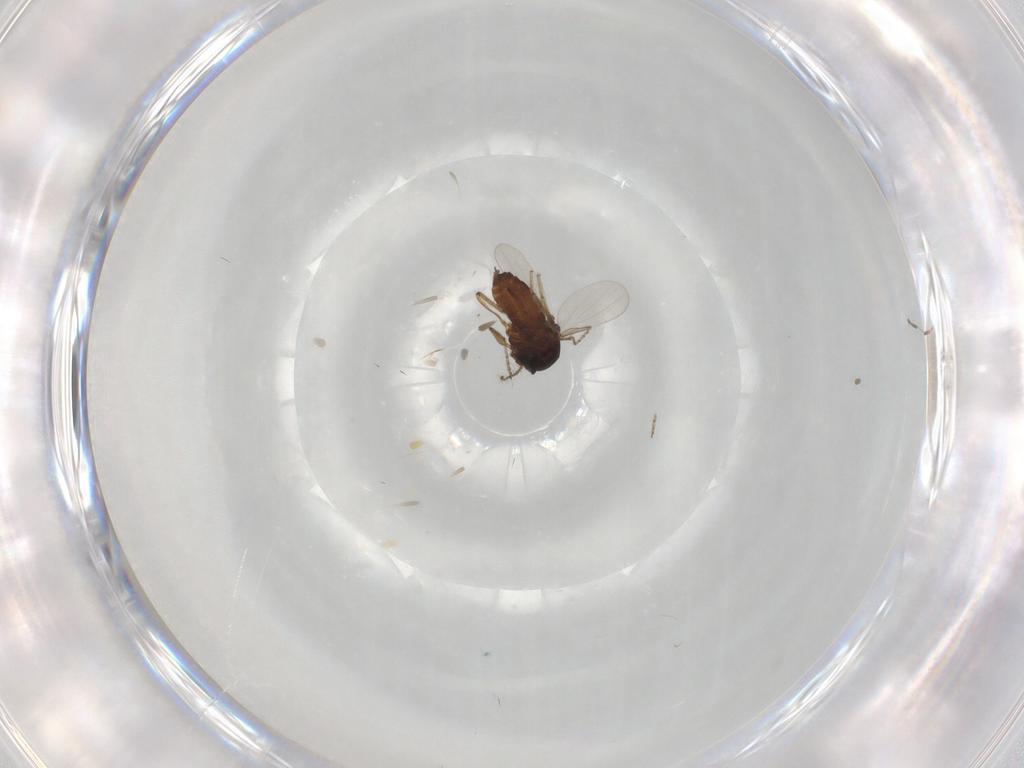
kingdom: Animalia
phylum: Arthropoda
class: Insecta
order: Diptera
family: Ceratopogonidae
